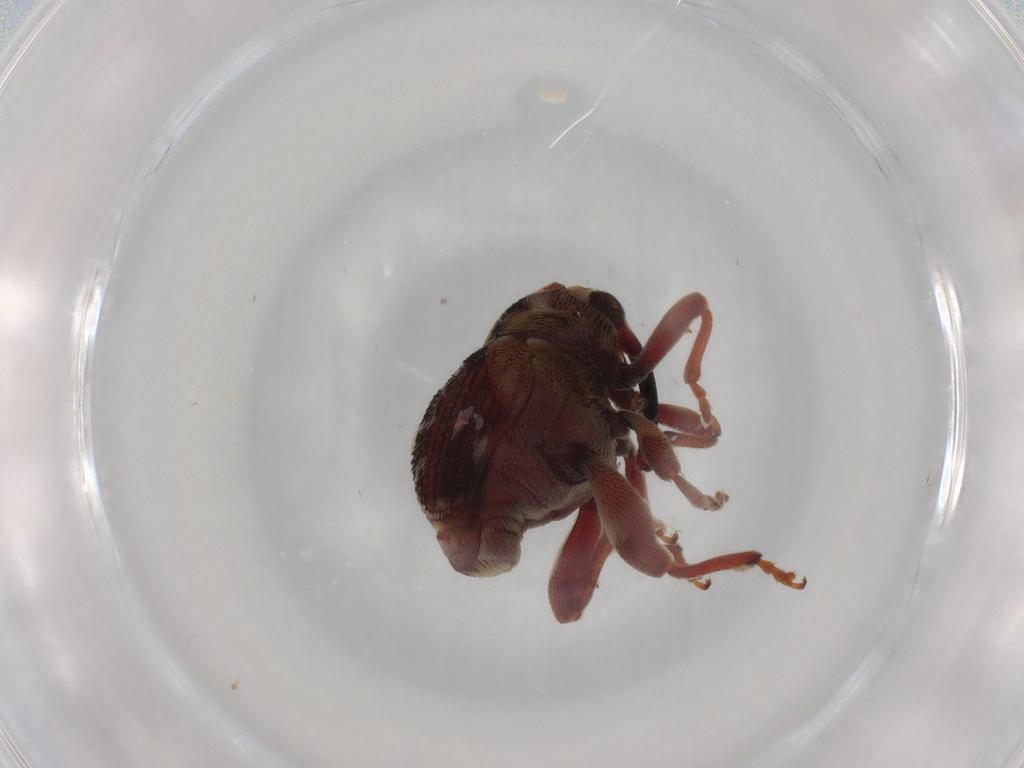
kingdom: Animalia
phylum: Arthropoda
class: Insecta
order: Coleoptera
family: Curculionidae
